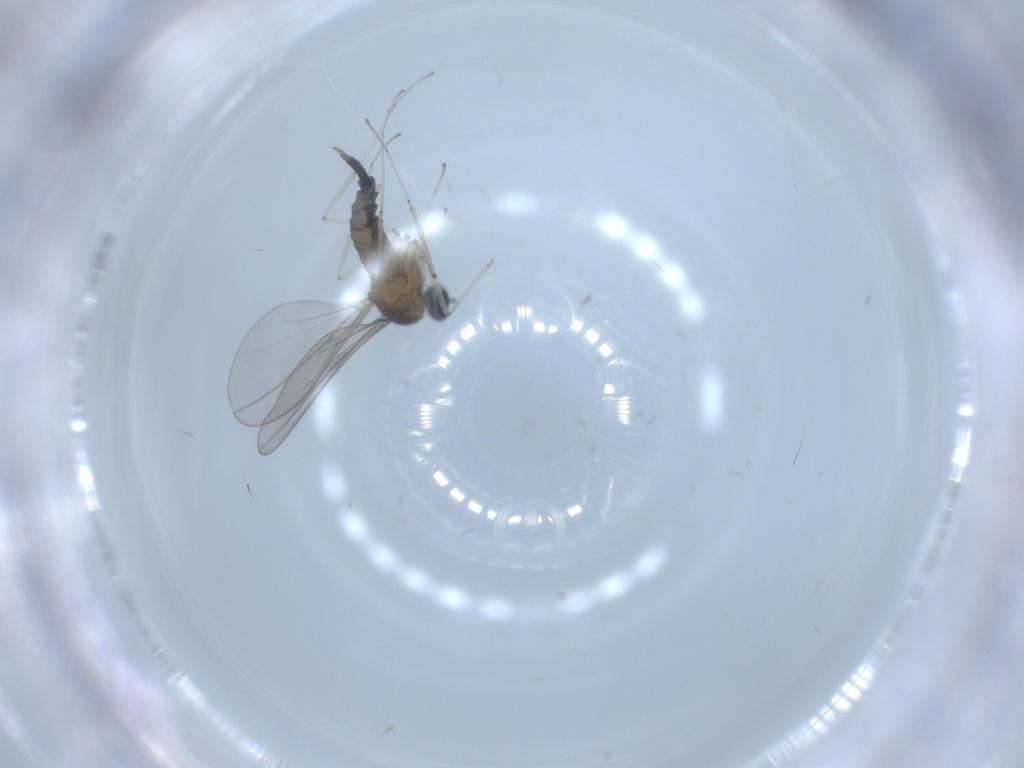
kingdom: Animalia
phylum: Arthropoda
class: Insecta
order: Diptera
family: Cecidomyiidae
